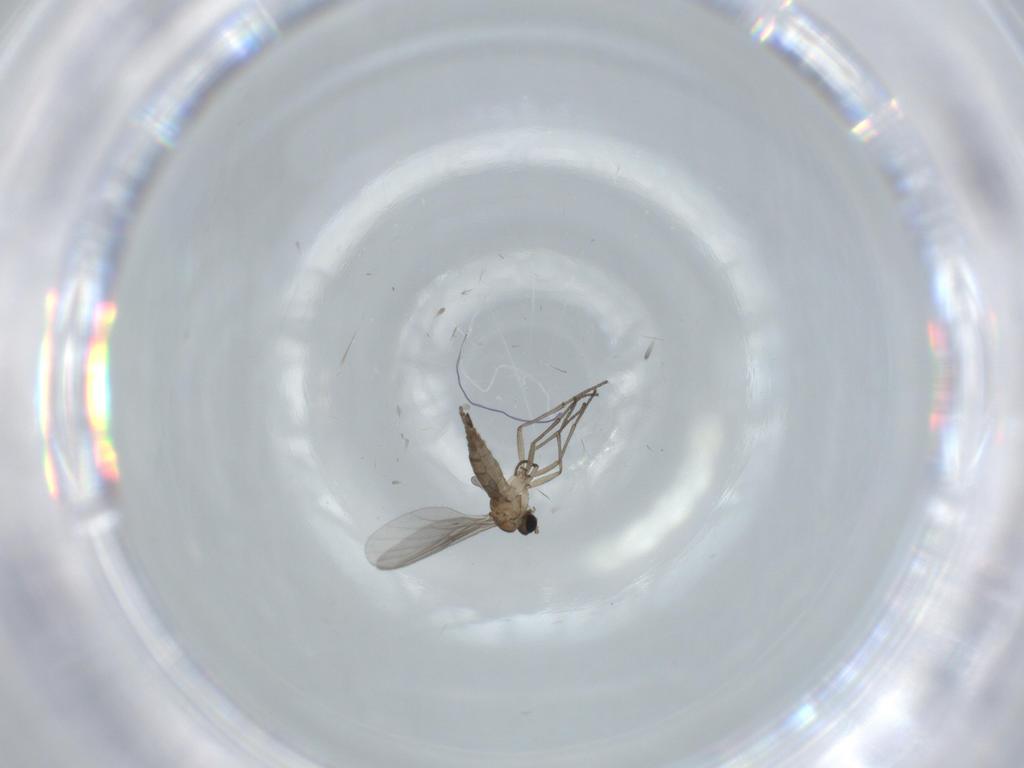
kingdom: Animalia
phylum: Arthropoda
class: Insecta
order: Diptera
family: Sciaridae
